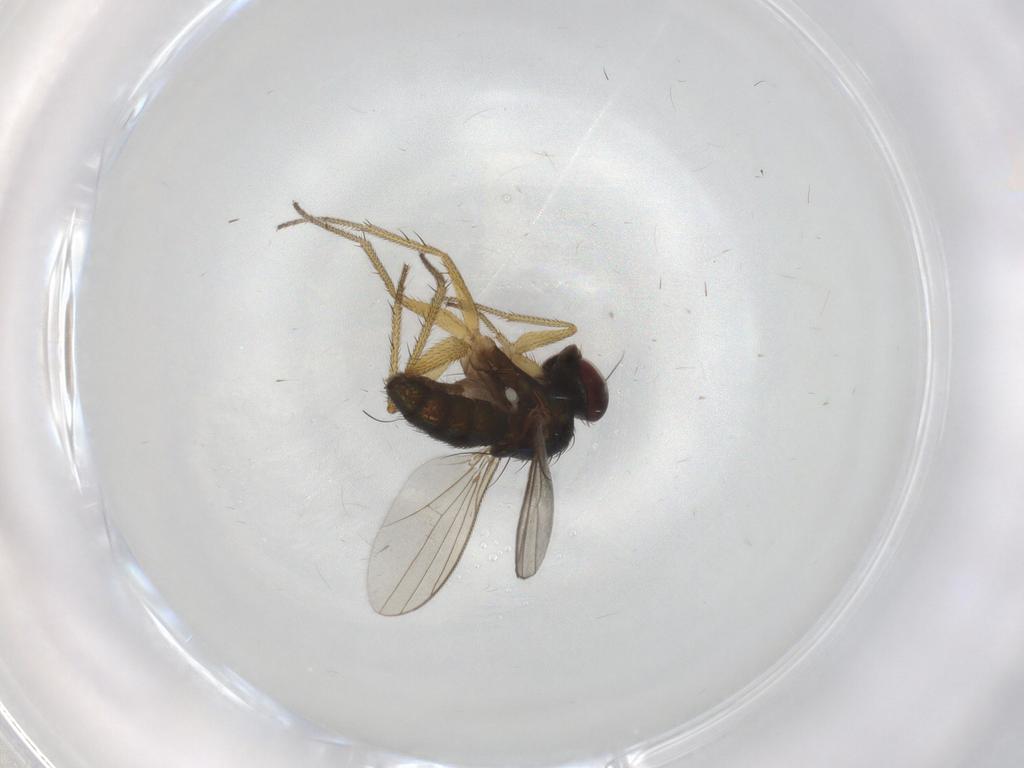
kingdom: Animalia
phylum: Arthropoda
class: Insecta
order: Diptera
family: Dolichopodidae
